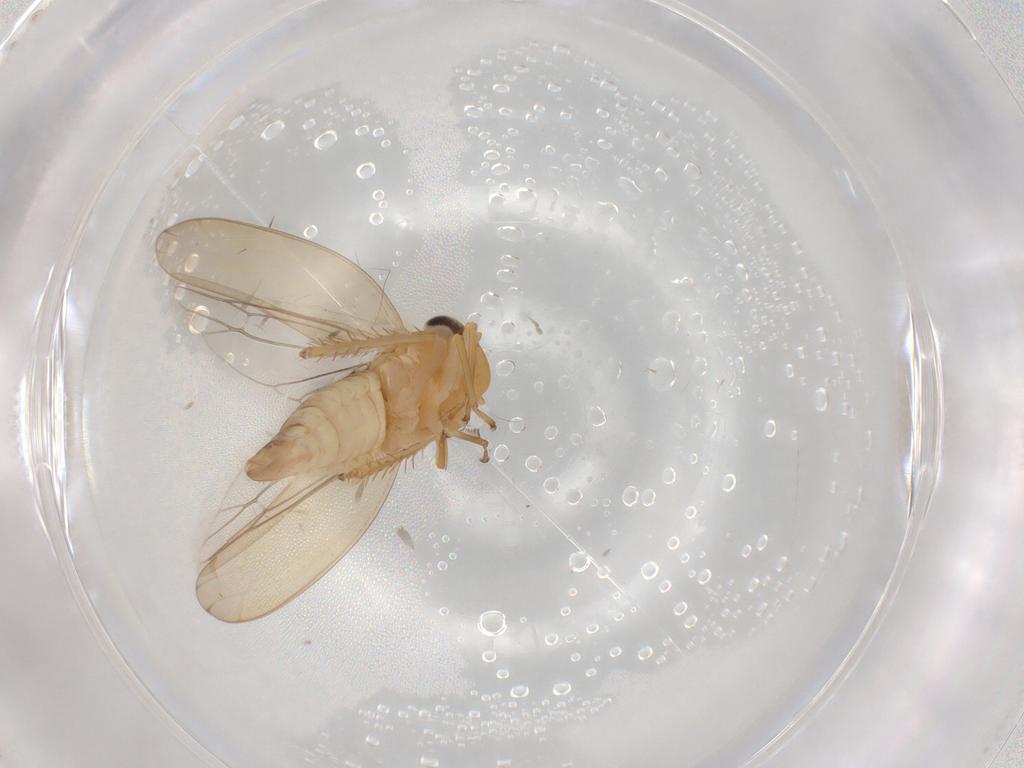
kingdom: Animalia
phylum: Arthropoda
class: Insecta
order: Hemiptera
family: Cicadellidae
